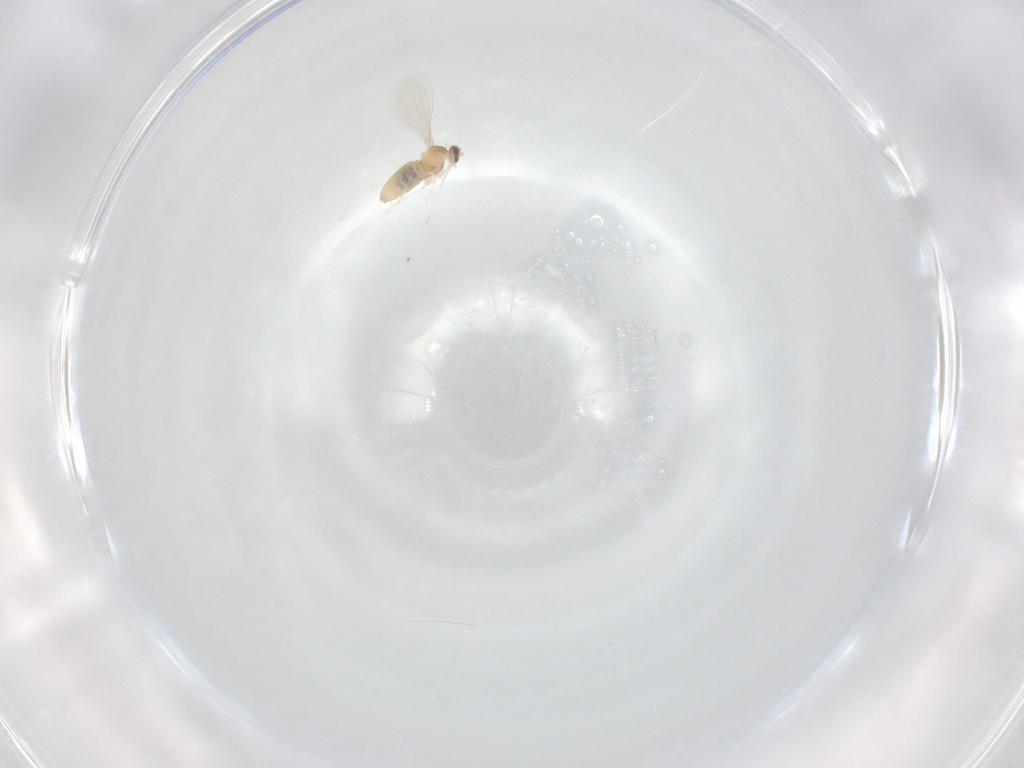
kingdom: Animalia
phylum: Arthropoda
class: Insecta
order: Diptera
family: Cecidomyiidae
